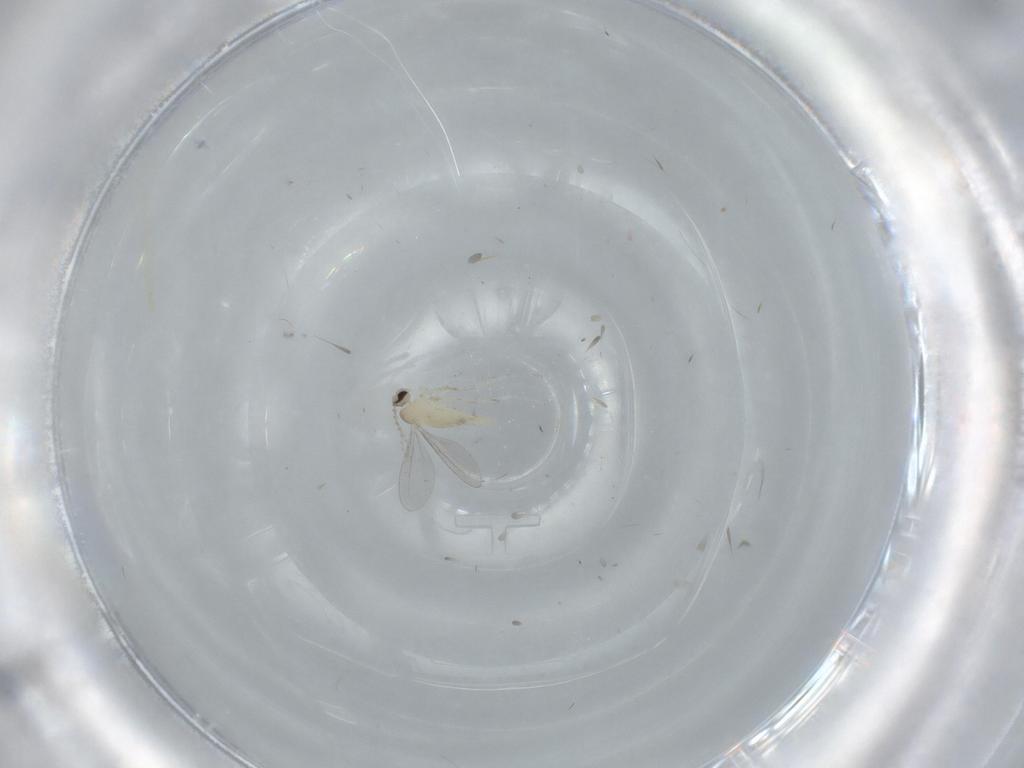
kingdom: Animalia
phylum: Arthropoda
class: Insecta
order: Diptera
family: Cecidomyiidae
